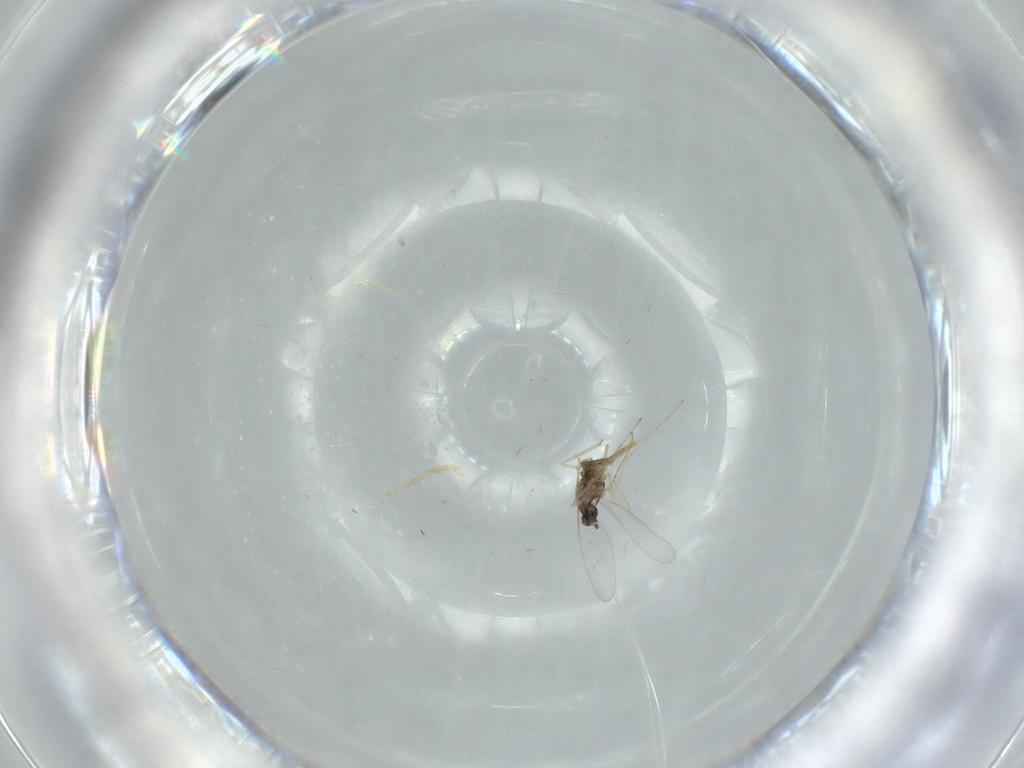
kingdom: Animalia
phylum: Arthropoda
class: Insecta
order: Diptera
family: Cecidomyiidae
